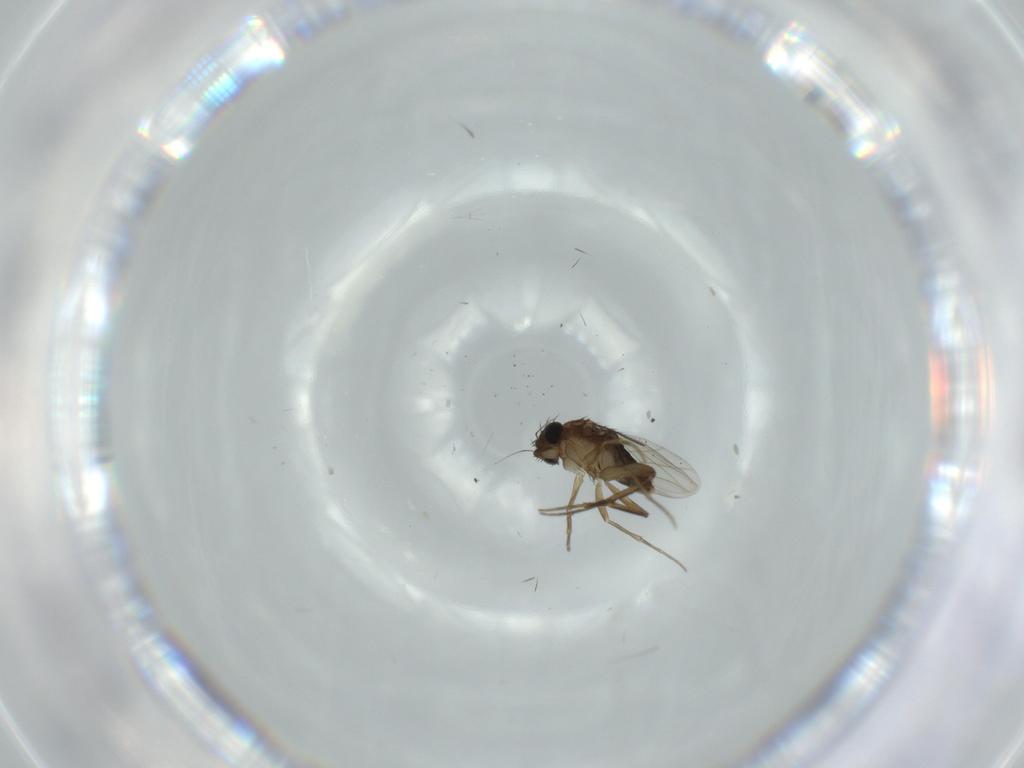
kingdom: Animalia
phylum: Arthropoda
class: Insecta
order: Diptera
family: Phoridae
